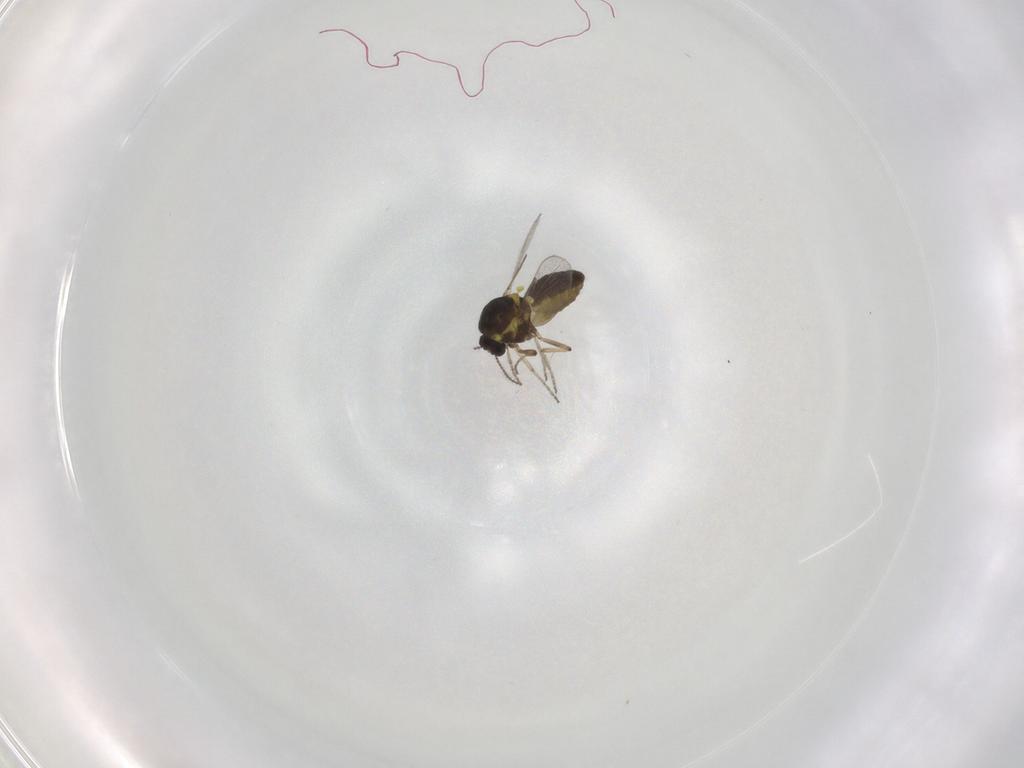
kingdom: Animalia
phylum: Arthropoda
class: Insecta
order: Diptera
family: Ceratopogonidae
